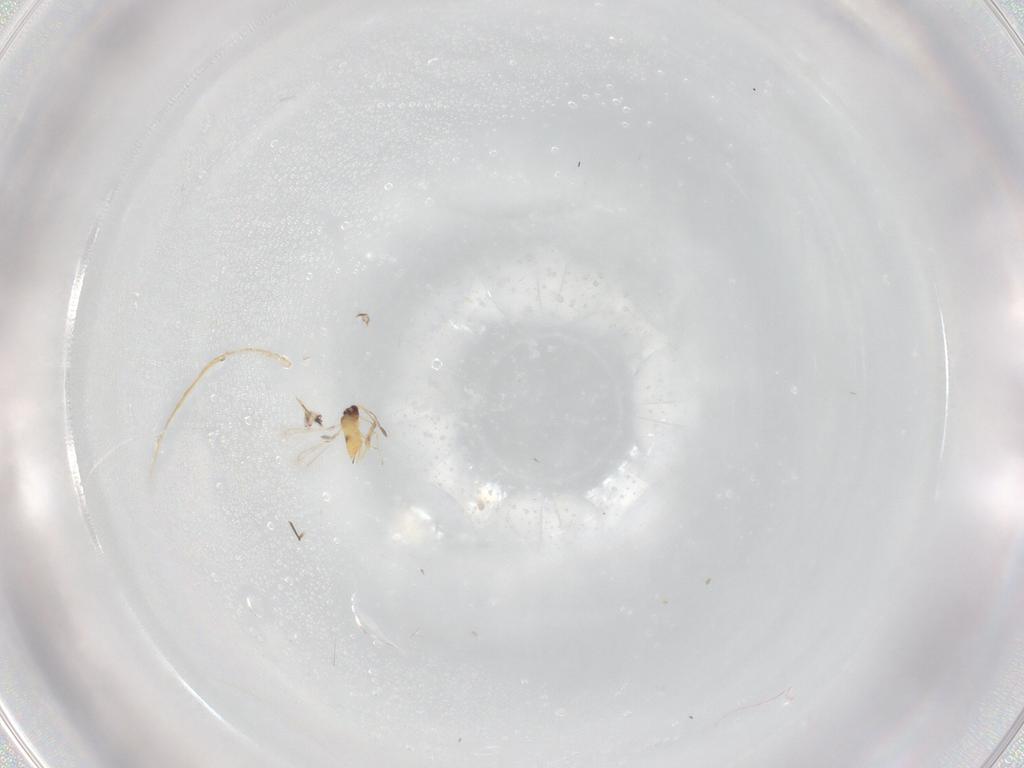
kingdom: Animalia
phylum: Arthropoda
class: Insecta
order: Hymenoptera
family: Mymaridae
